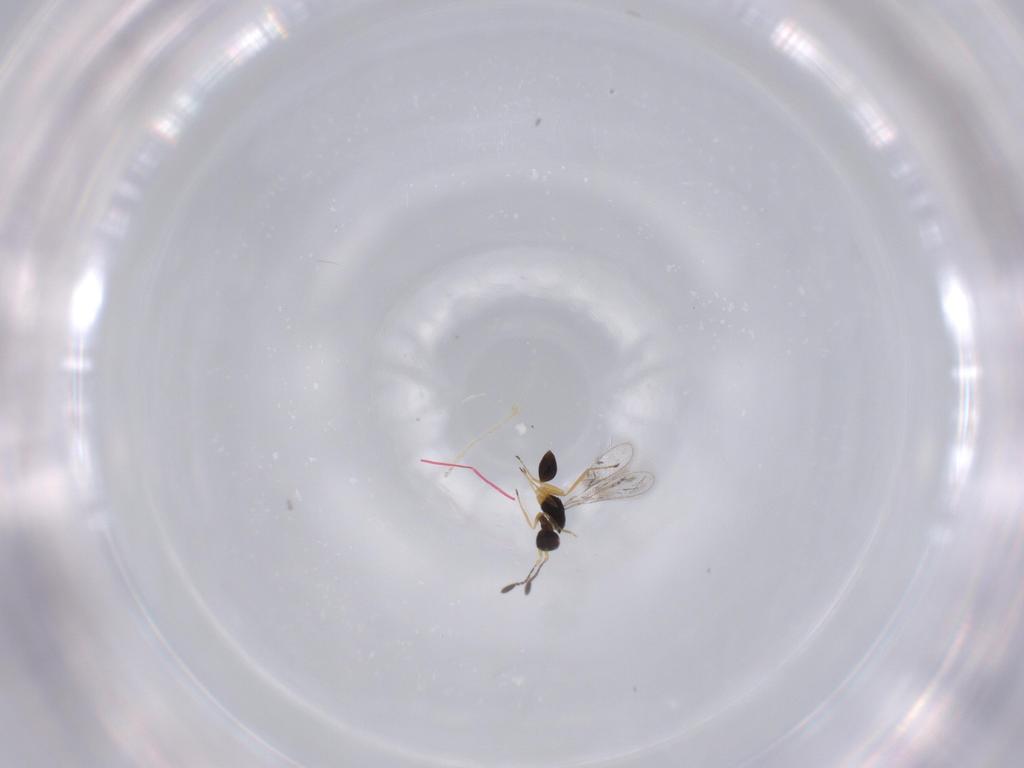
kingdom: Animalia
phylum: Arthropoda
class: Insecta
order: Hymenoptera
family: Mymaridae
